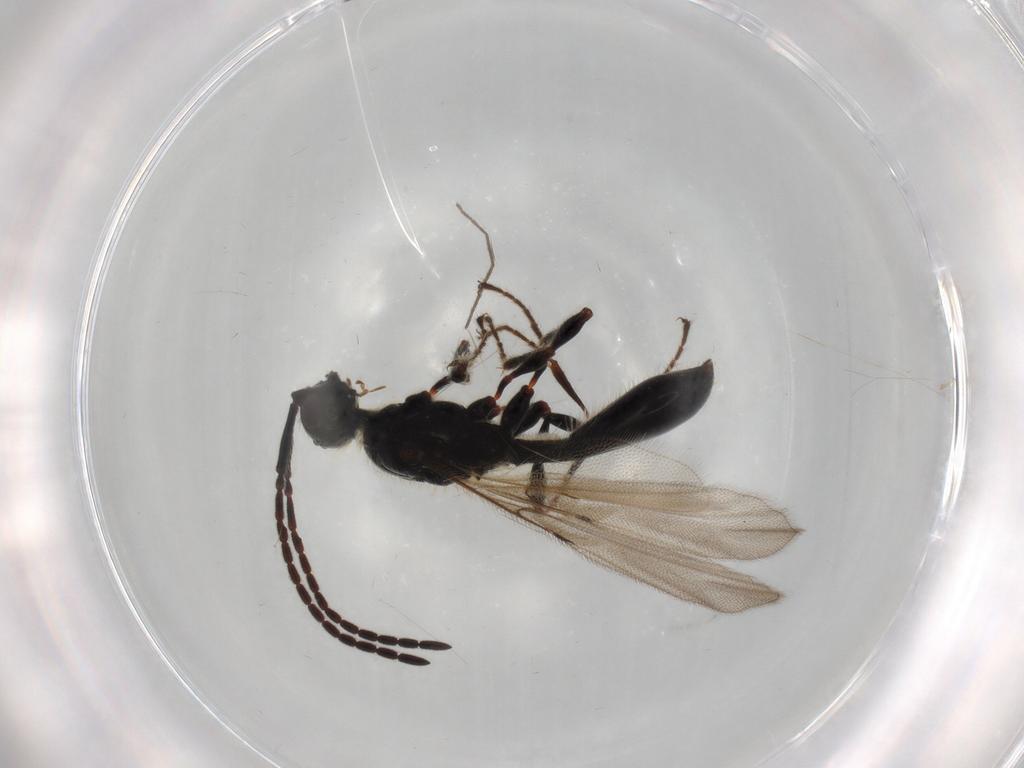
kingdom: Animalia
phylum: Arthropoda
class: Insecta
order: Hymenoptera
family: Diapriidae
